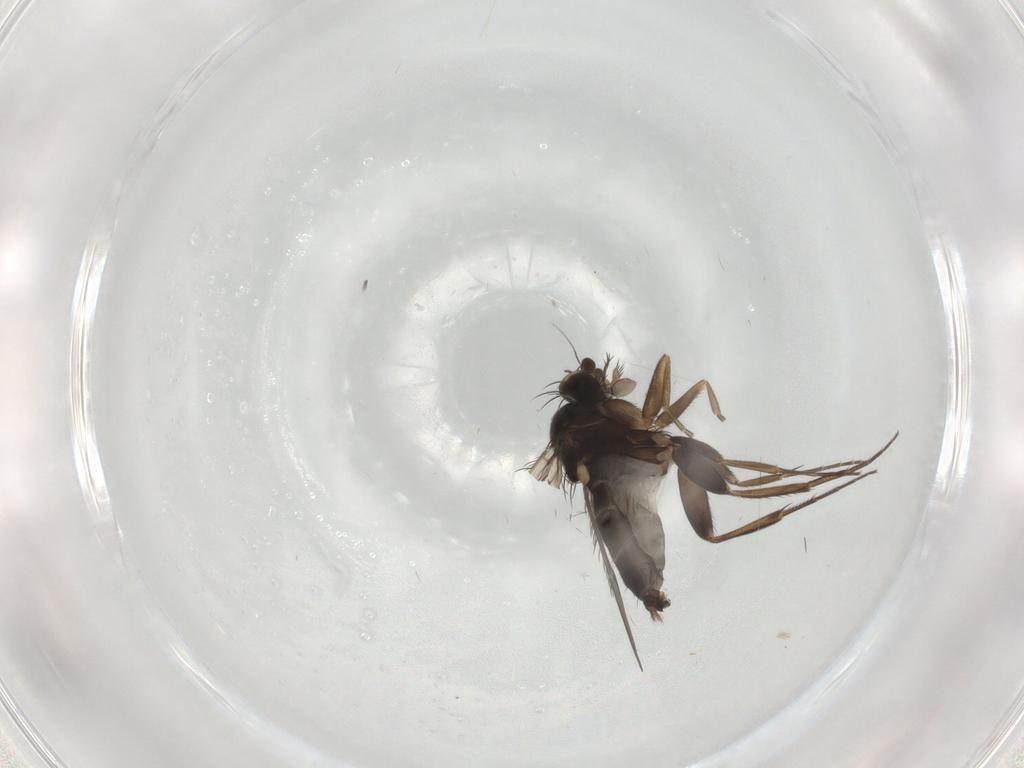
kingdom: Animalia
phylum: Arthropoda
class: Insecta
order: Diptera
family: Phoridae
